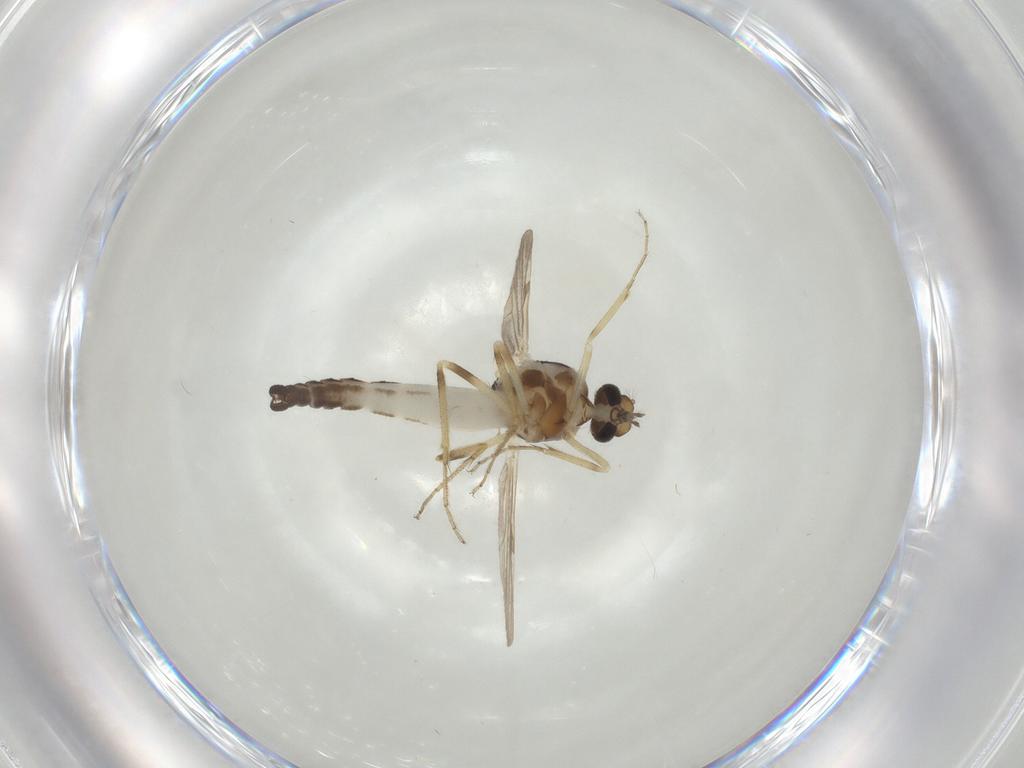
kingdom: Animalia
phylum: Arthropoda
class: Insecta
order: Diptera
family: Ceratopogonidae
